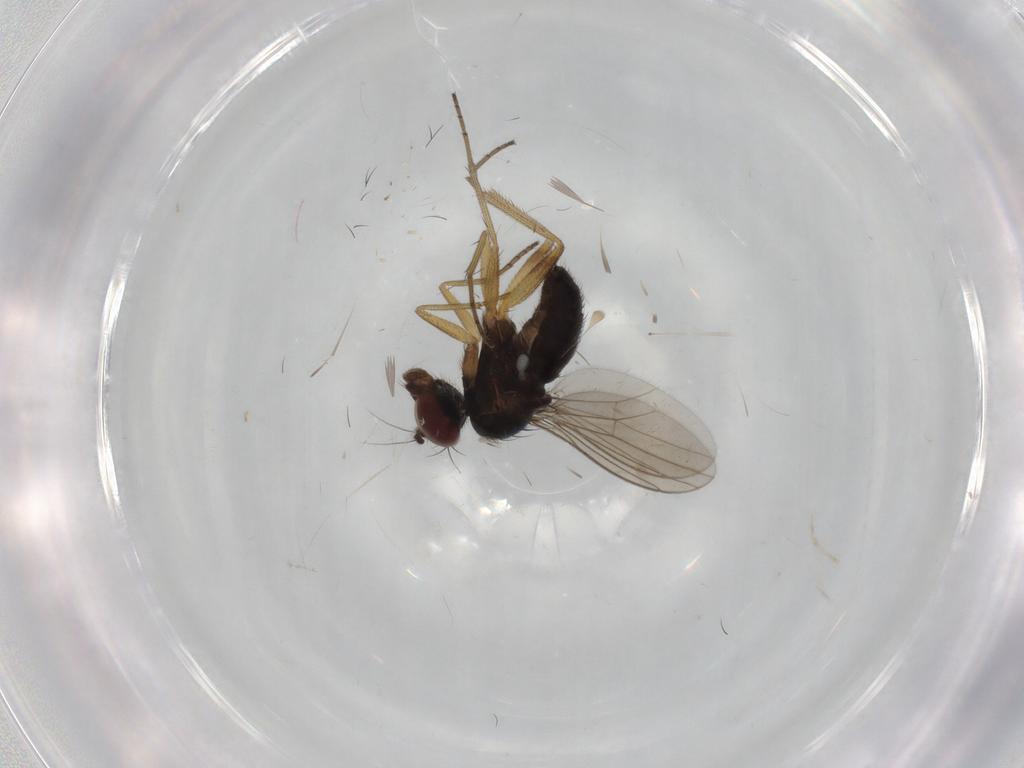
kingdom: Animalia
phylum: Arthropoda
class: Insecta
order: Diptera
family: Dolichopodidae
